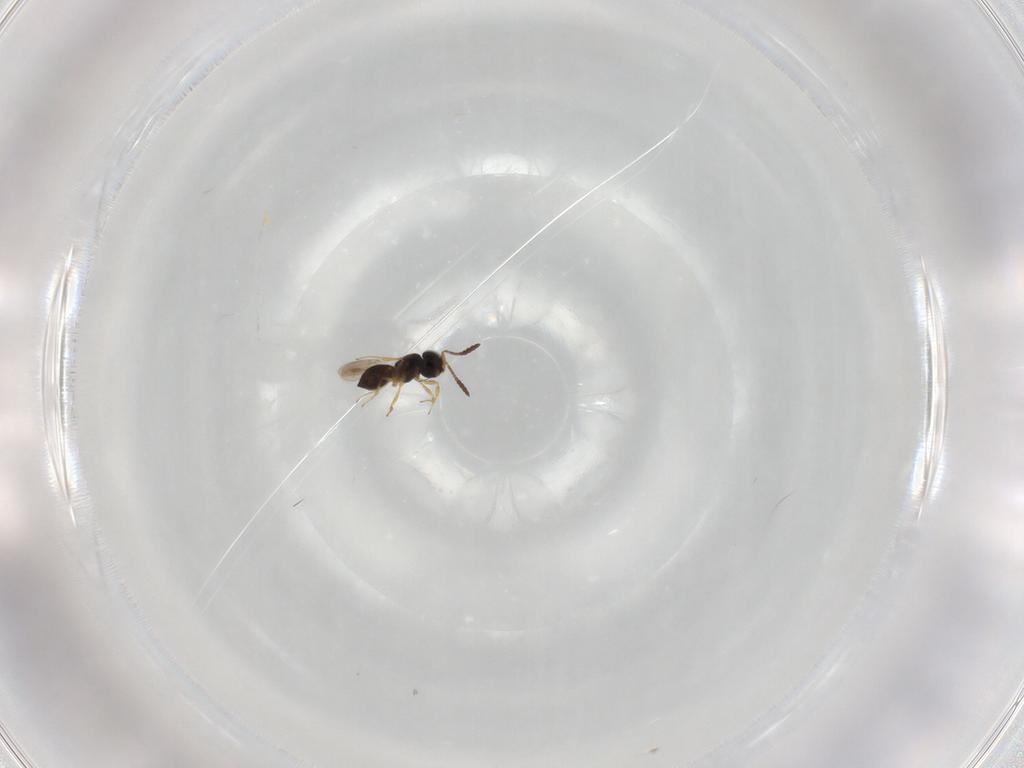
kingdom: Animalia
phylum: Arthropoda
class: Insecta
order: Hymenoptera
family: Scelionidae
